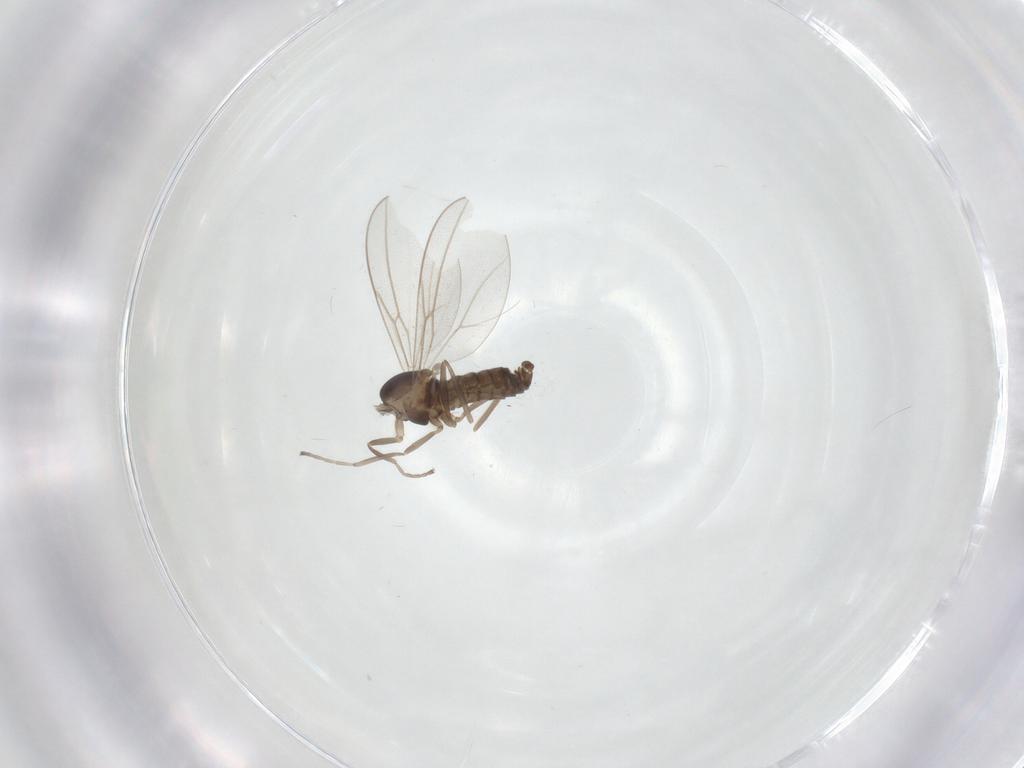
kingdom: Animalia
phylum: Arthropoda
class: Insecta
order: Diptera
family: Cecidomyiidae
